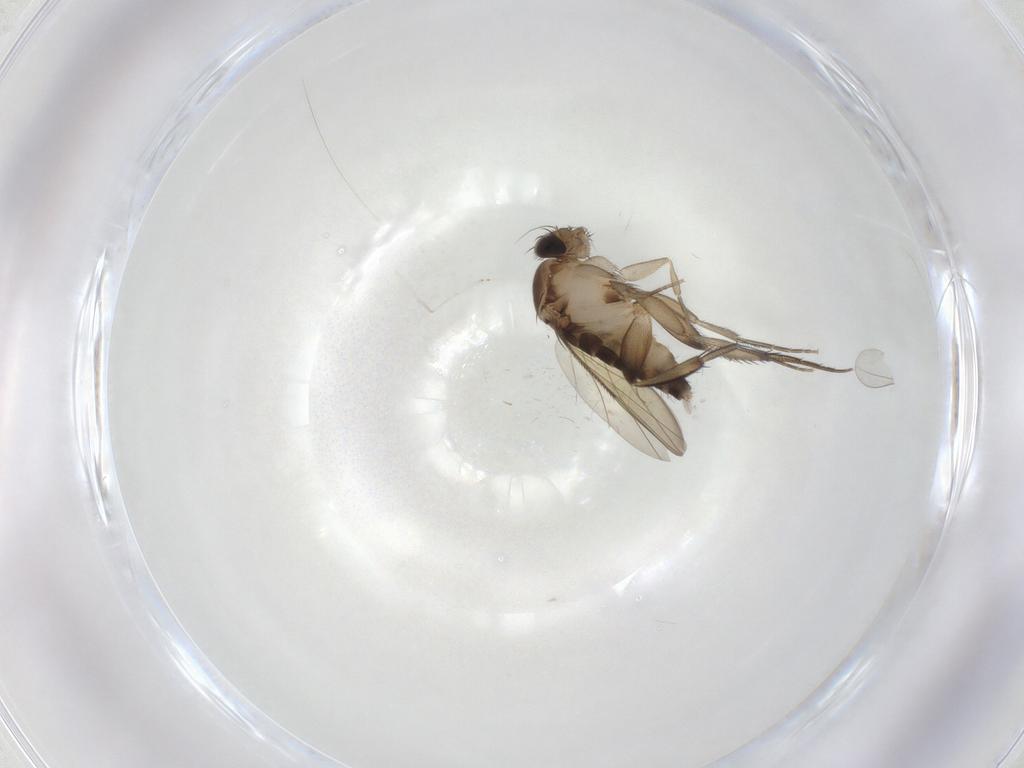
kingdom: Animalia
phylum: Arthropoda
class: Insecta
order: Diptera
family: Phoridae
